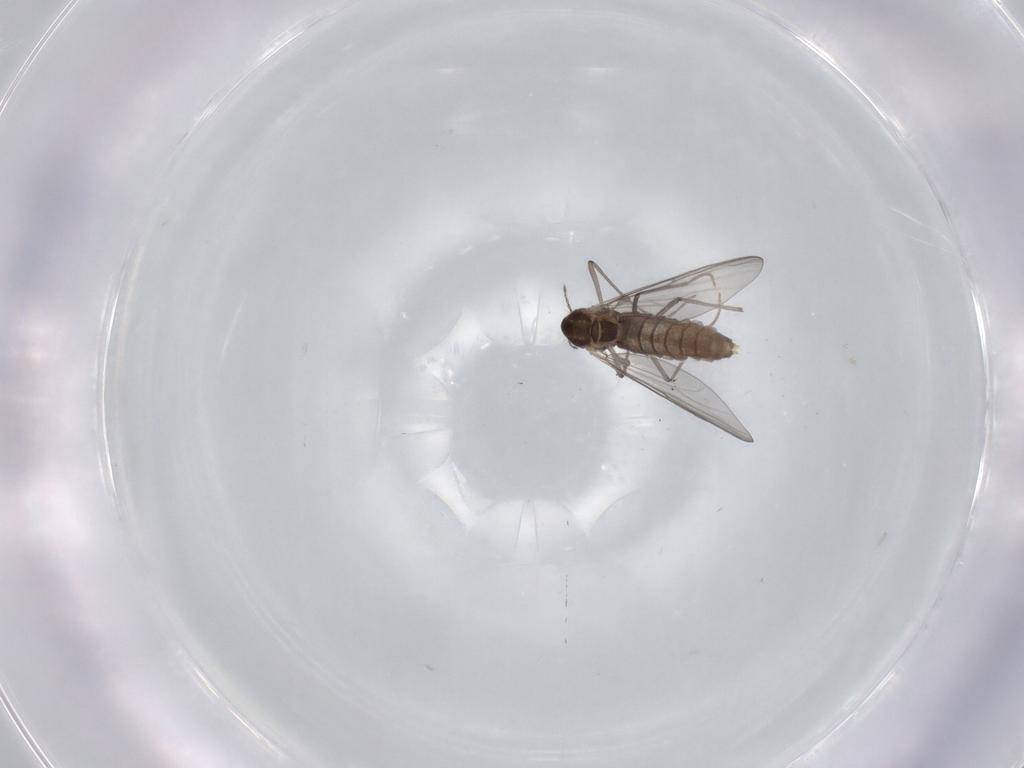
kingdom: Animalia
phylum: Arthropoda
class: Insecta
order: Diptera
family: Chironomidae
